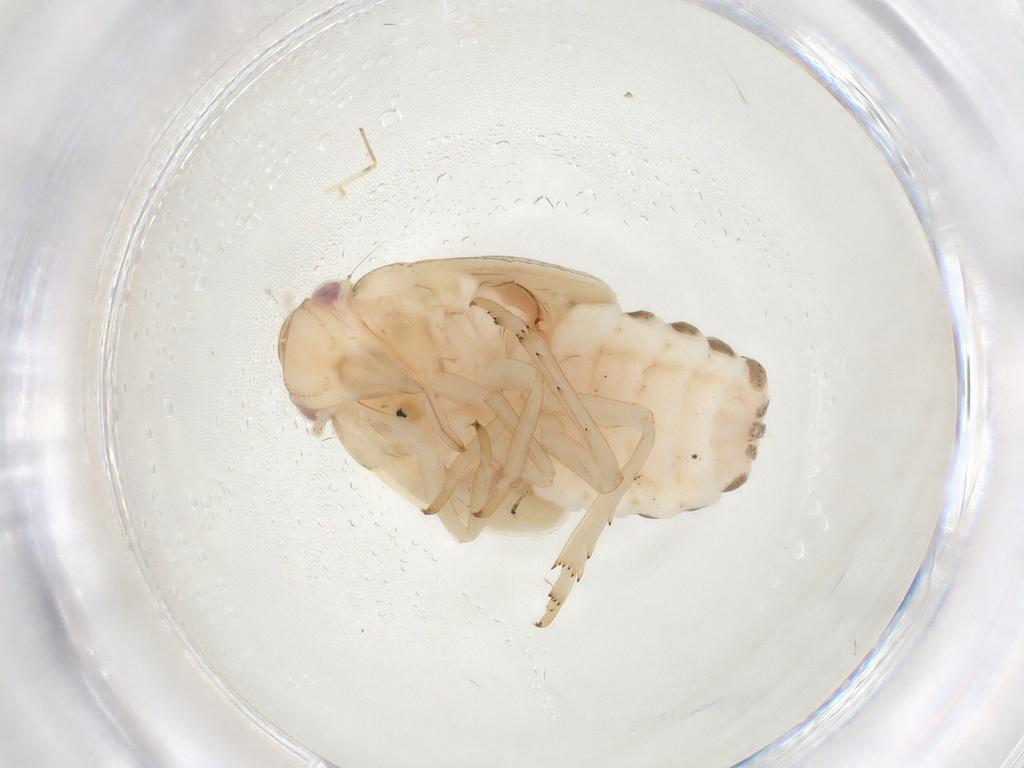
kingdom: Animalia
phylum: Arthropoda
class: Insecta
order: Hemiptera
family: Flatidae
